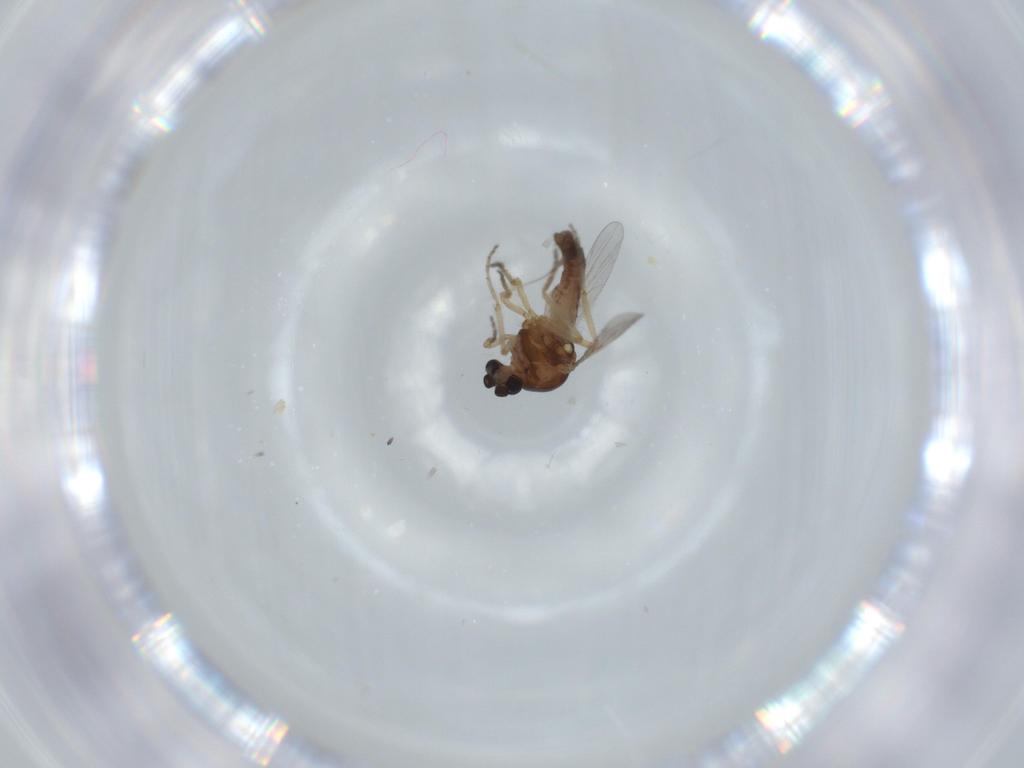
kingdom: Animalia
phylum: Arthropoda
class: Insecta
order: Diptera
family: Ceratopogonidae
